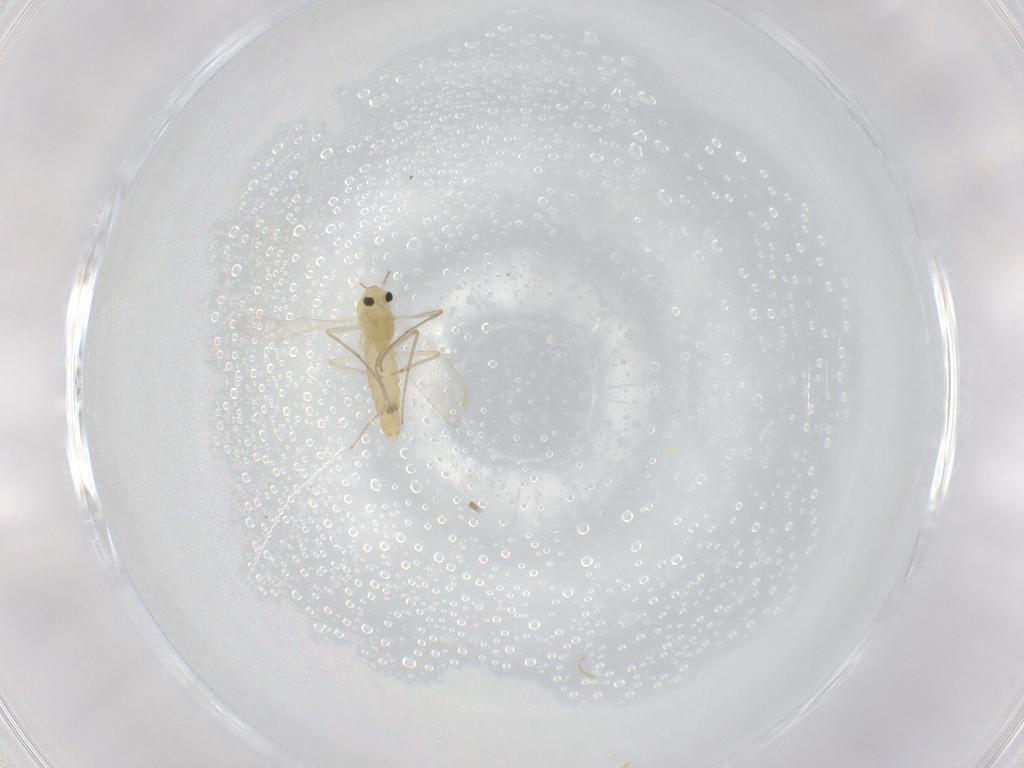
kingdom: Animalia
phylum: Arthropoda
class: Insecta
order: Diptera
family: Chironomidae
